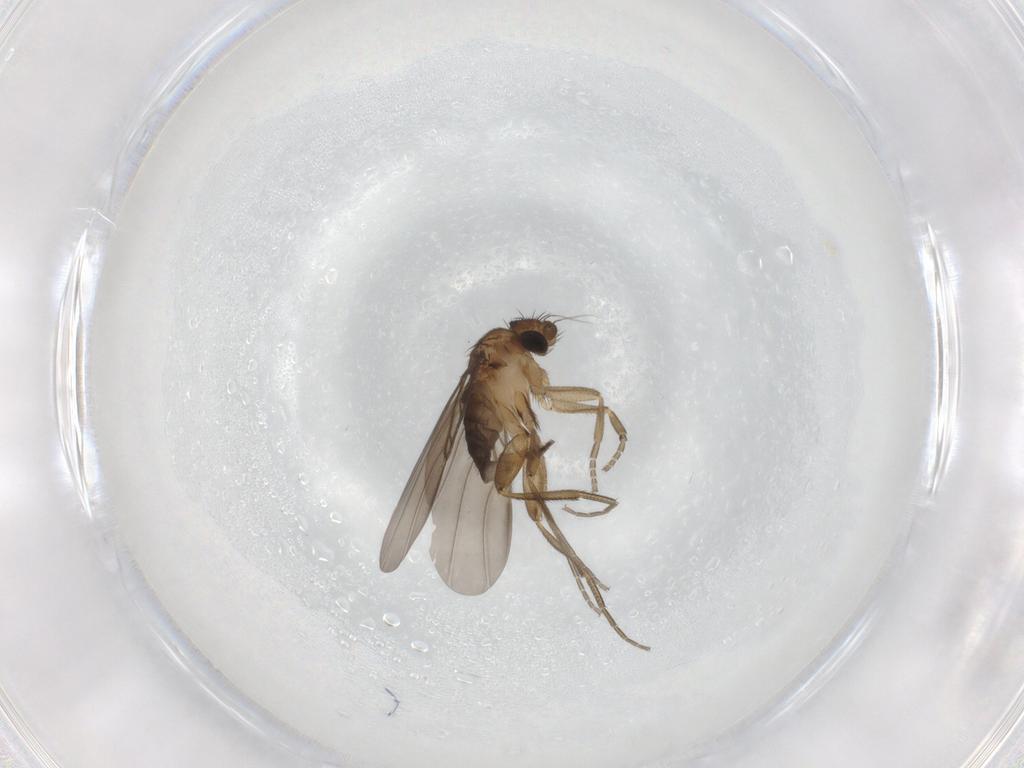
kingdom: Animalia
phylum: Arthropoda
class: Insecta
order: Diptera
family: Phoridae
